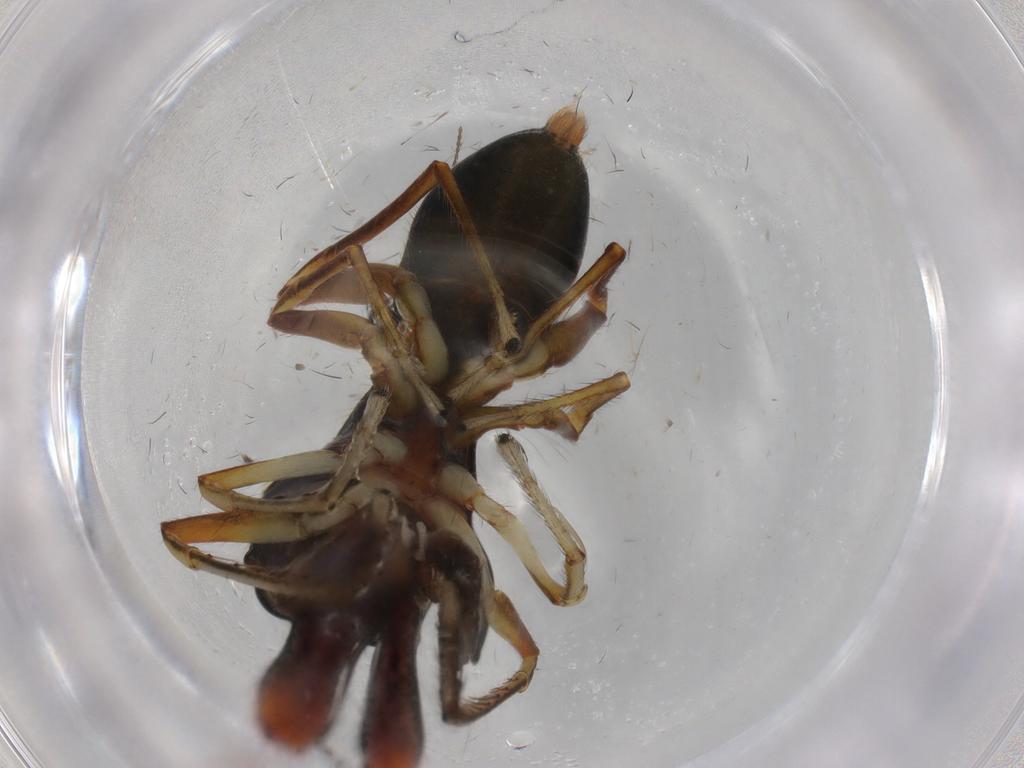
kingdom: Animalia
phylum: Arthropoda
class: Arachnida
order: Araneae
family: Salticidae
